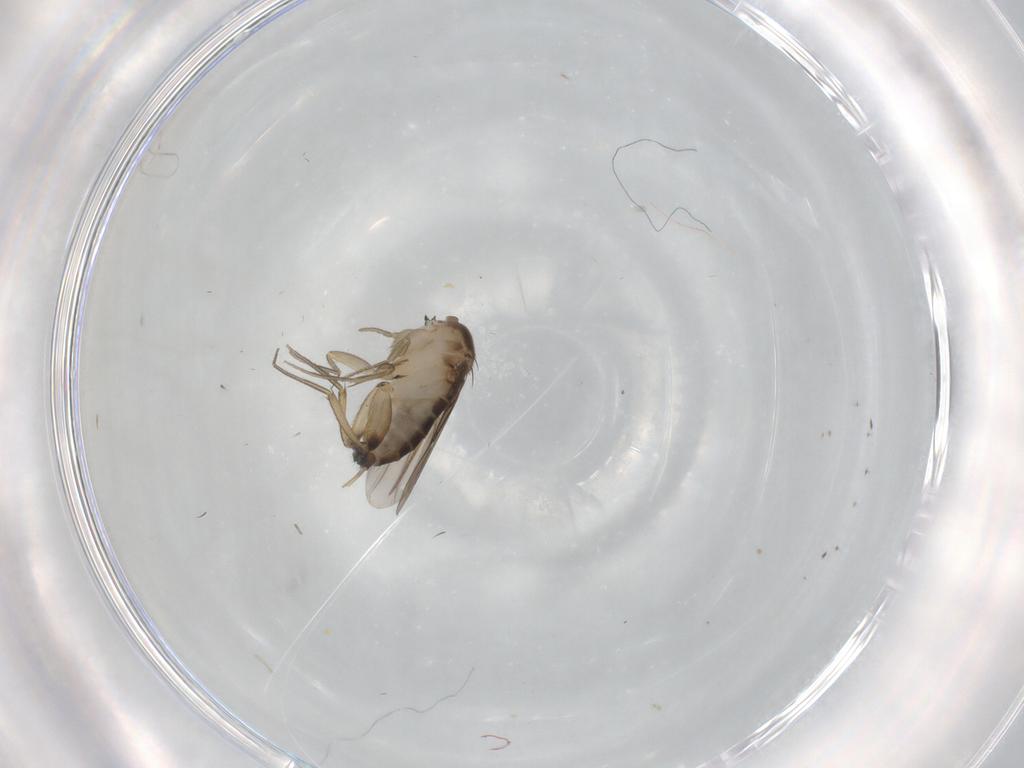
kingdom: Animalia
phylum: Arthropoda
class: Insecta
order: Diptera
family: Phoridae
